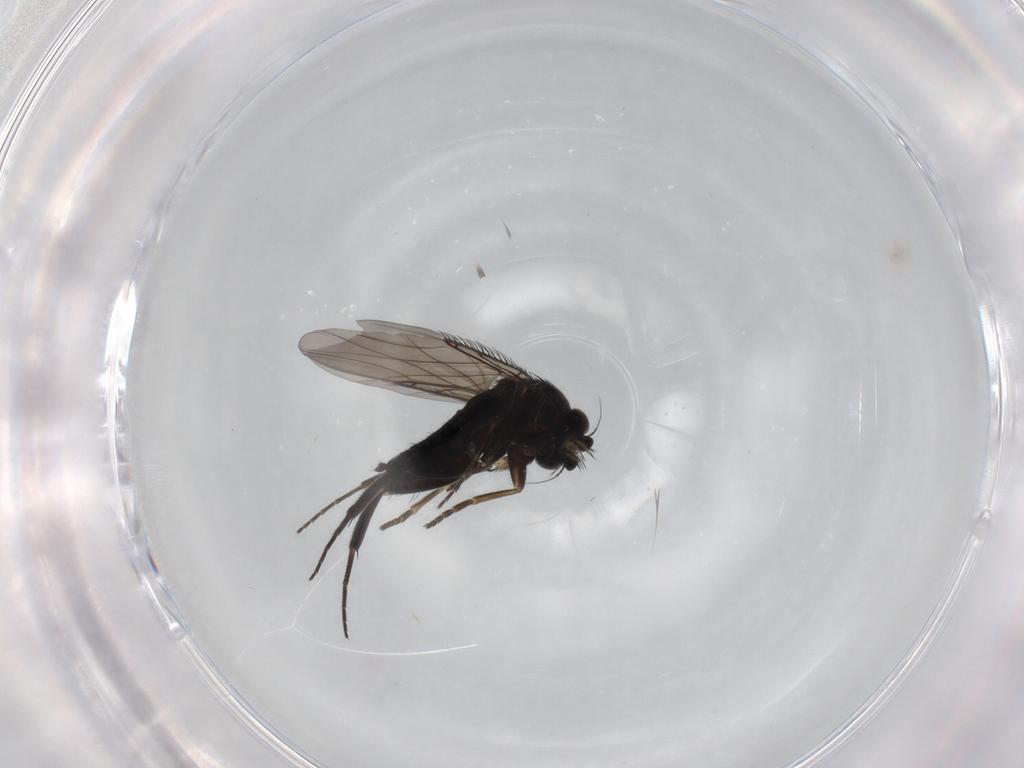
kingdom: Animalia
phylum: Arthropoda
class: Insecta
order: Diptera
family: Phoridae
